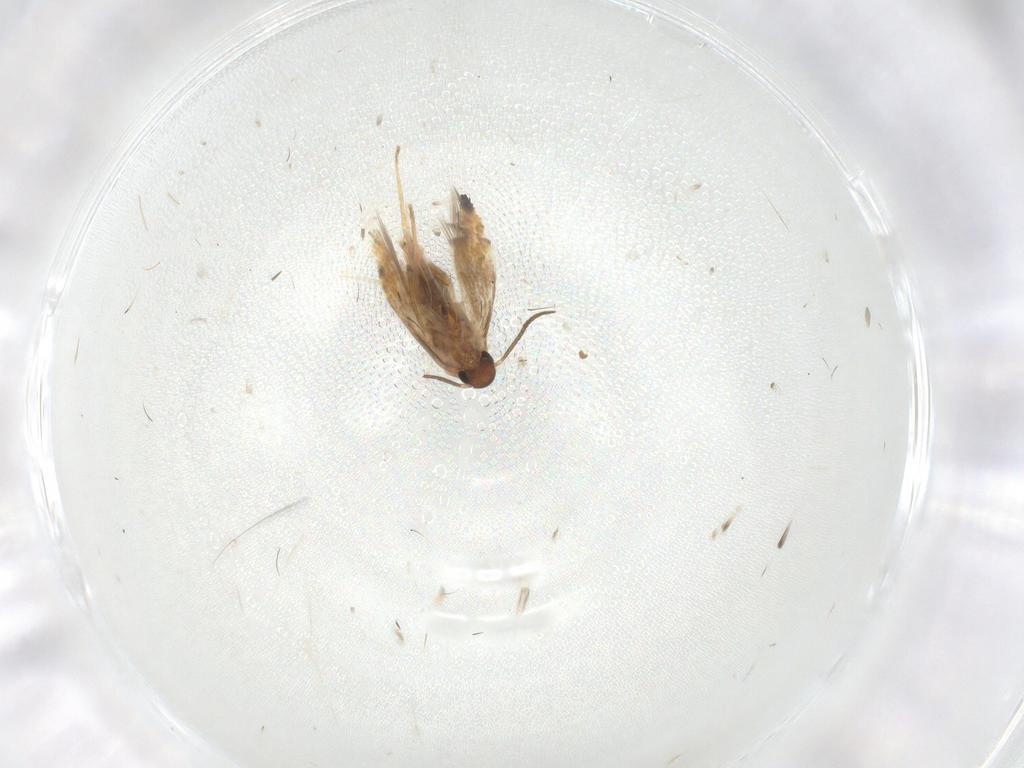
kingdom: Animalia
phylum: Arthropoda
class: Insecta
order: Lepidoptera
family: Heliozelidae
